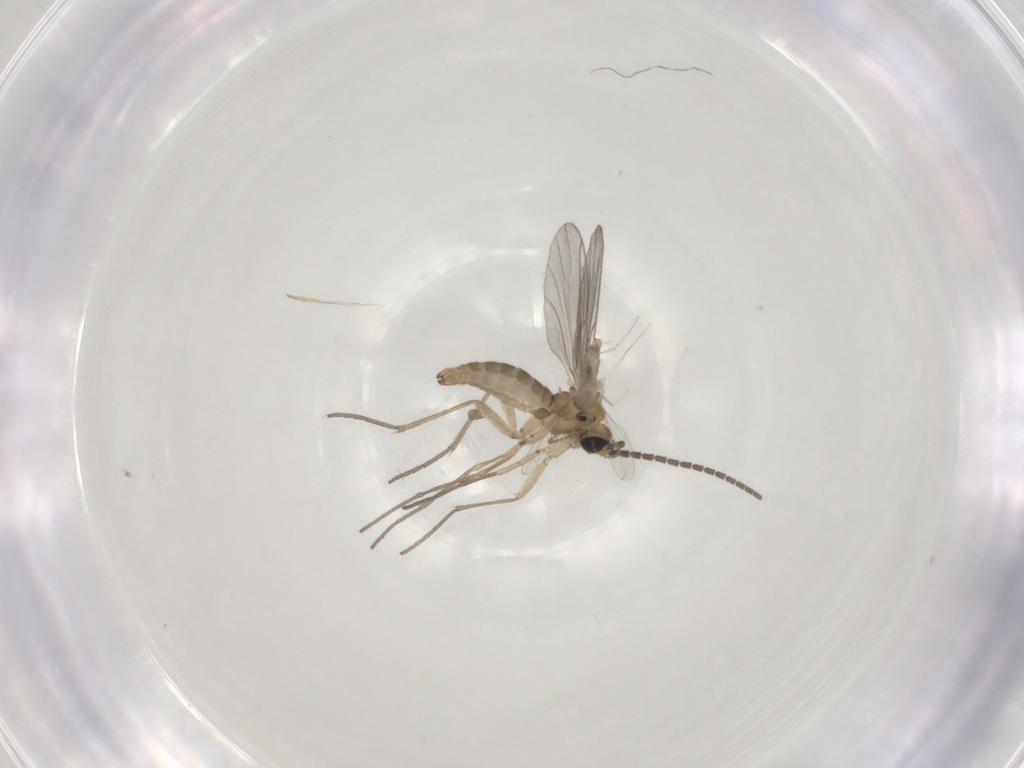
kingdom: Animalia
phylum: Arthropoda
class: Insecta
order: Diptera
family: Sciaridae
